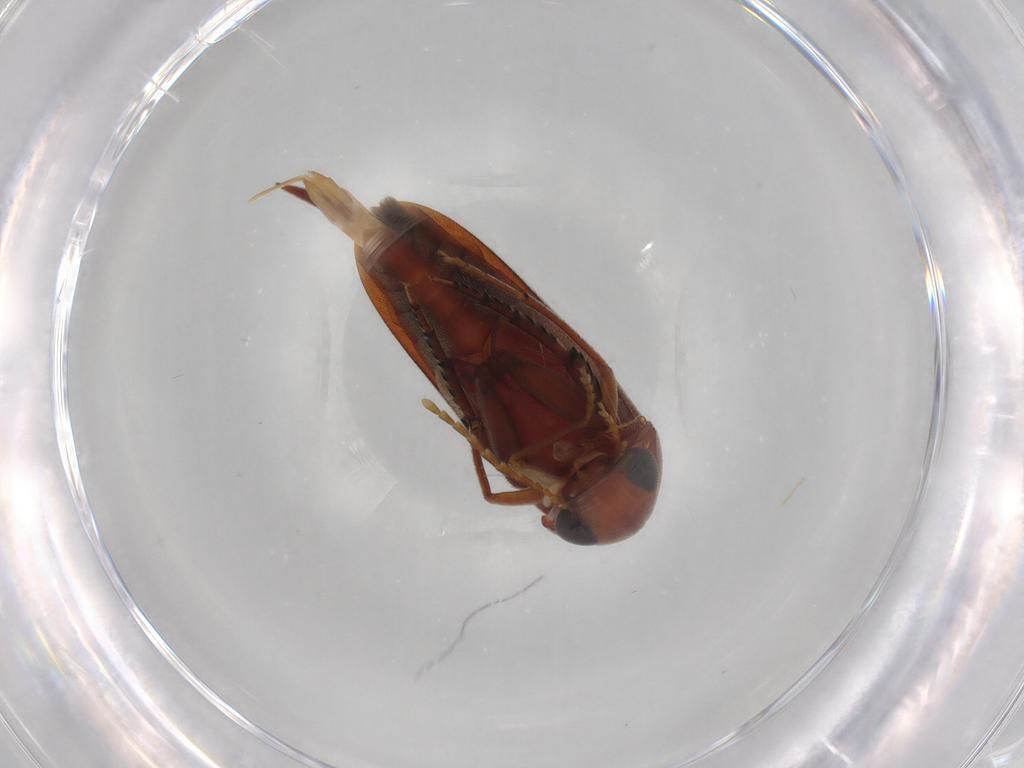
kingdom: Animalia
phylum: Arthropoda
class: Insecta
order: Coleoptera
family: Mordellidae
